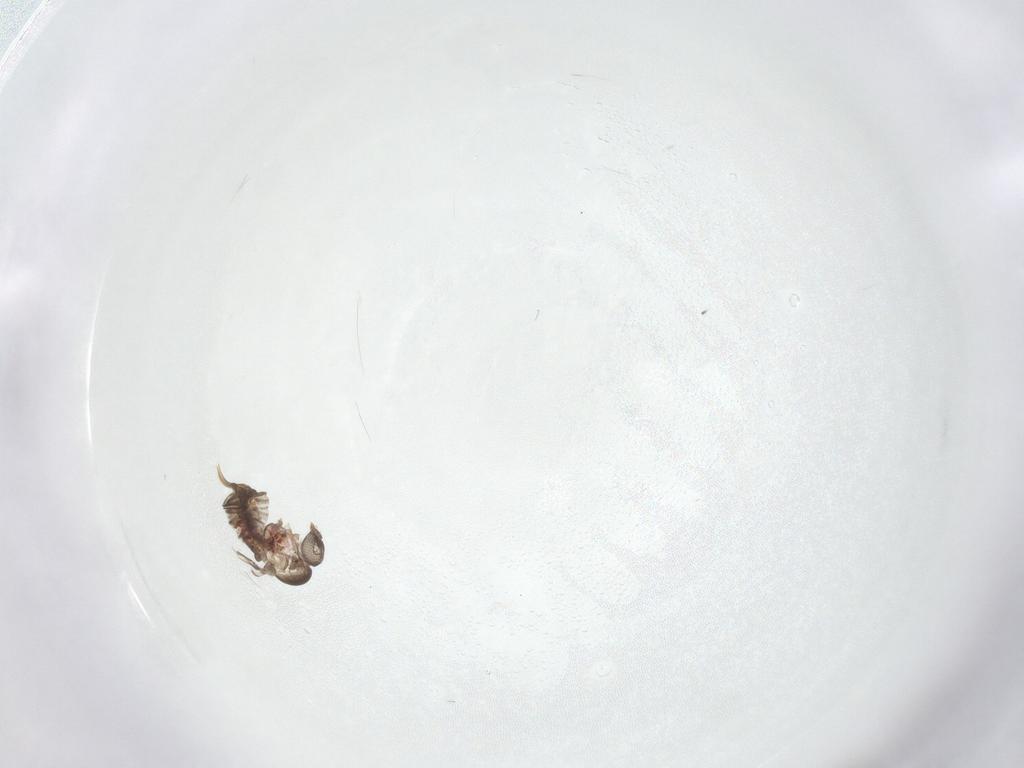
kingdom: Animalia
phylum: Arthropoda
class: Insecta
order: Diptera
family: Psychodidae
